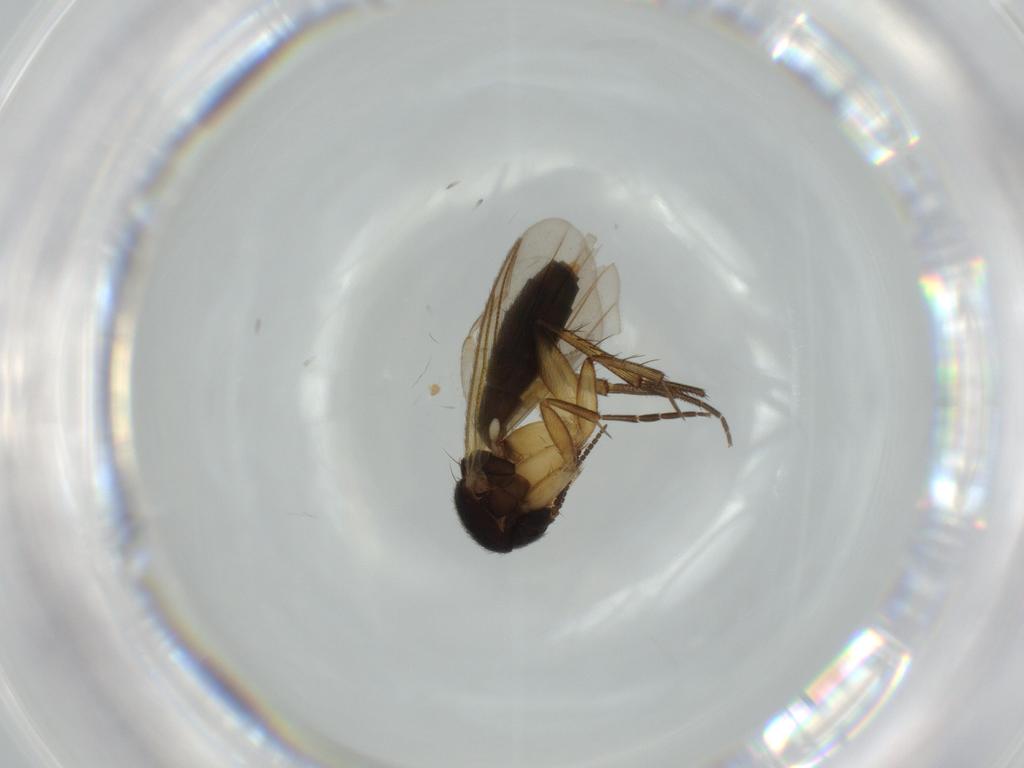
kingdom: Animalia
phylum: Arthropoda
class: Insecta
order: Diptera
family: Mycetophilidae
